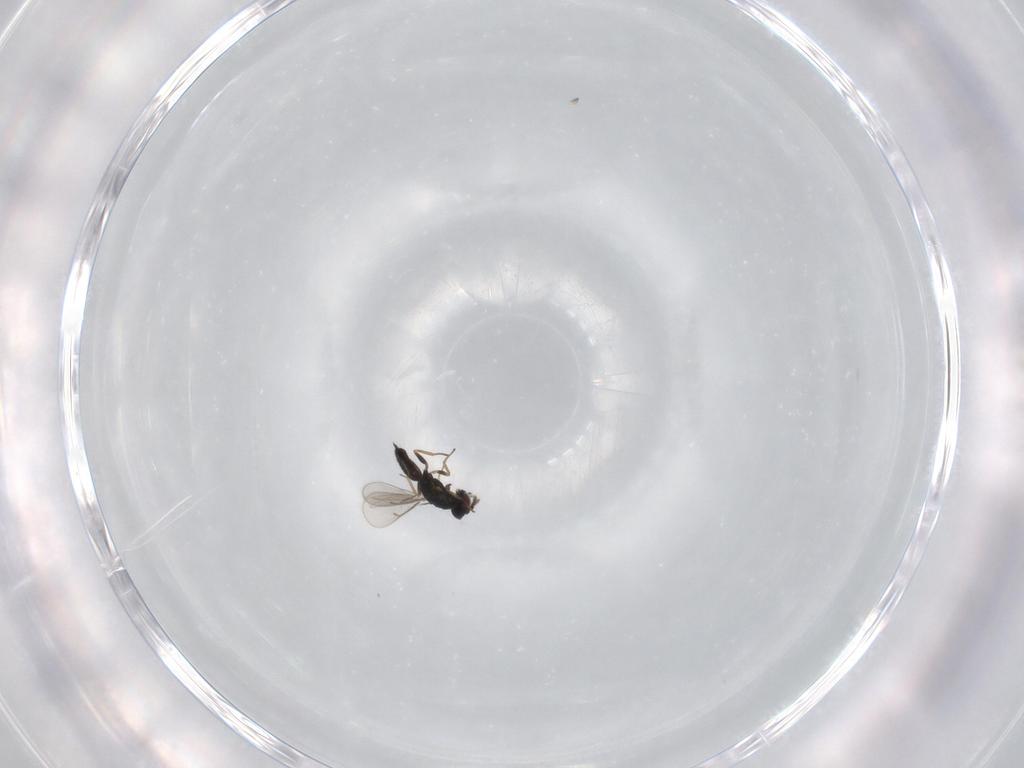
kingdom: Animalia
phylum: Arthropoda
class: Insecta
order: Hymenoptera
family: Eulophidae
